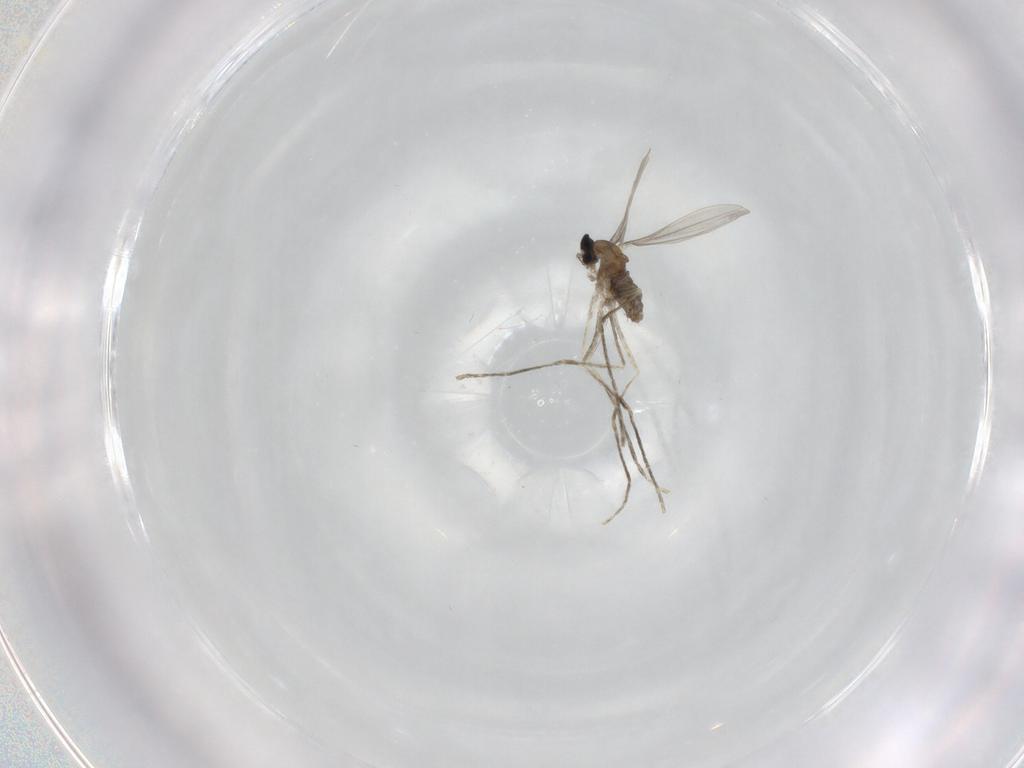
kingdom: Animalia
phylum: Arthropoda
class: Insecta
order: Diptera
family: Cecidomyiidae
